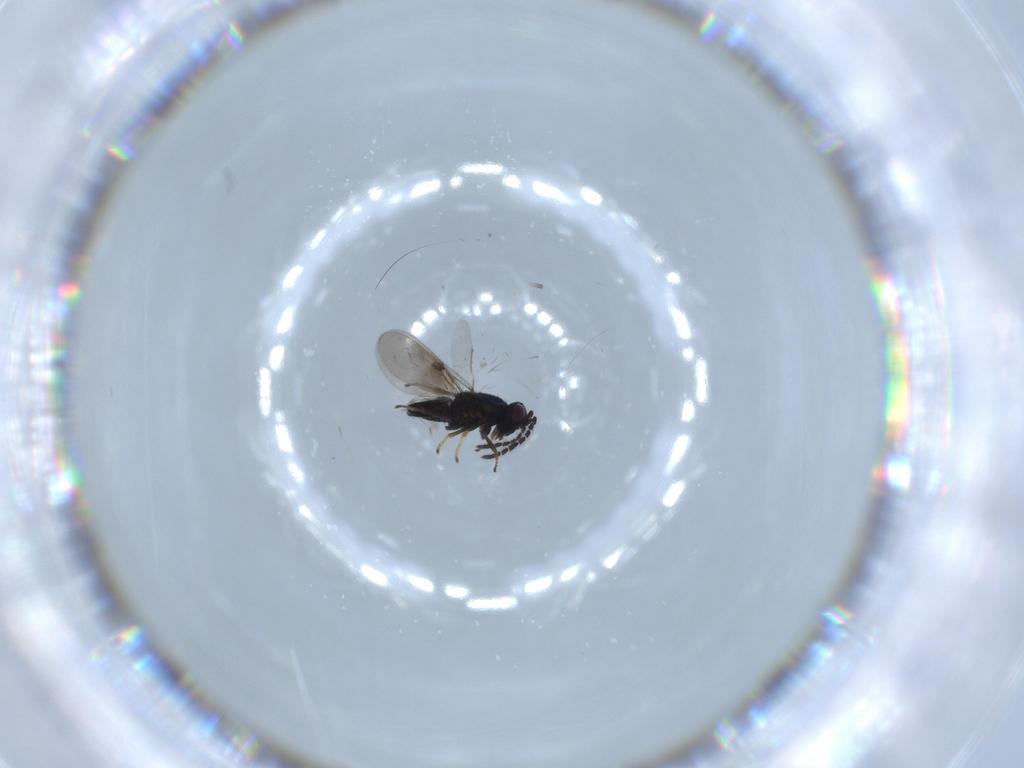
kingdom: Animalia
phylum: Arthropoda
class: Insecta
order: Hymenoptera
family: Encyrtidae
